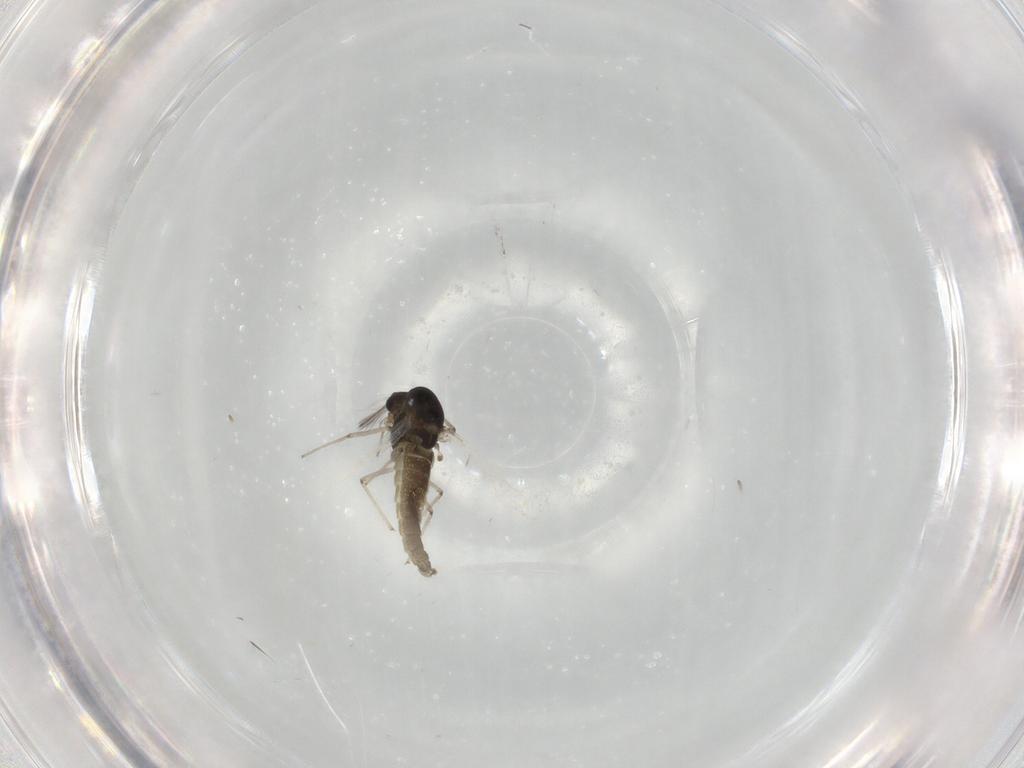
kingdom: Animalia
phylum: Arthropoda
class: Insecta
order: Diptera
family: Chironomidae
